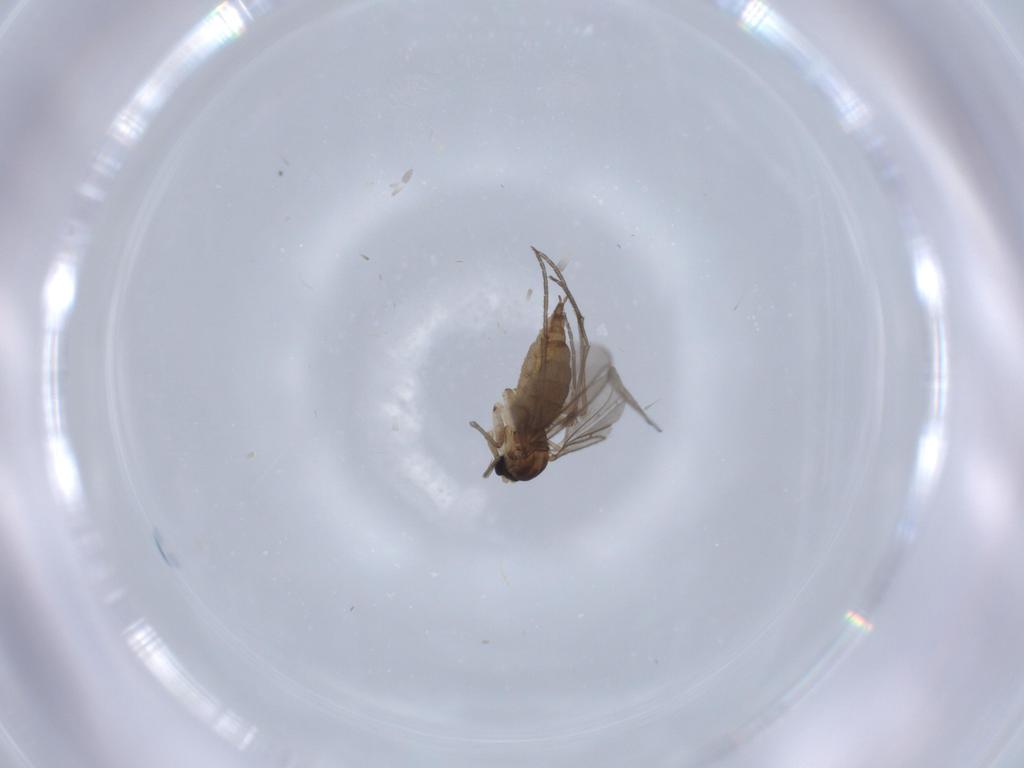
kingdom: Animalia
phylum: Arthropoda
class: Insecta
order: Diptera
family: Sciaridae
